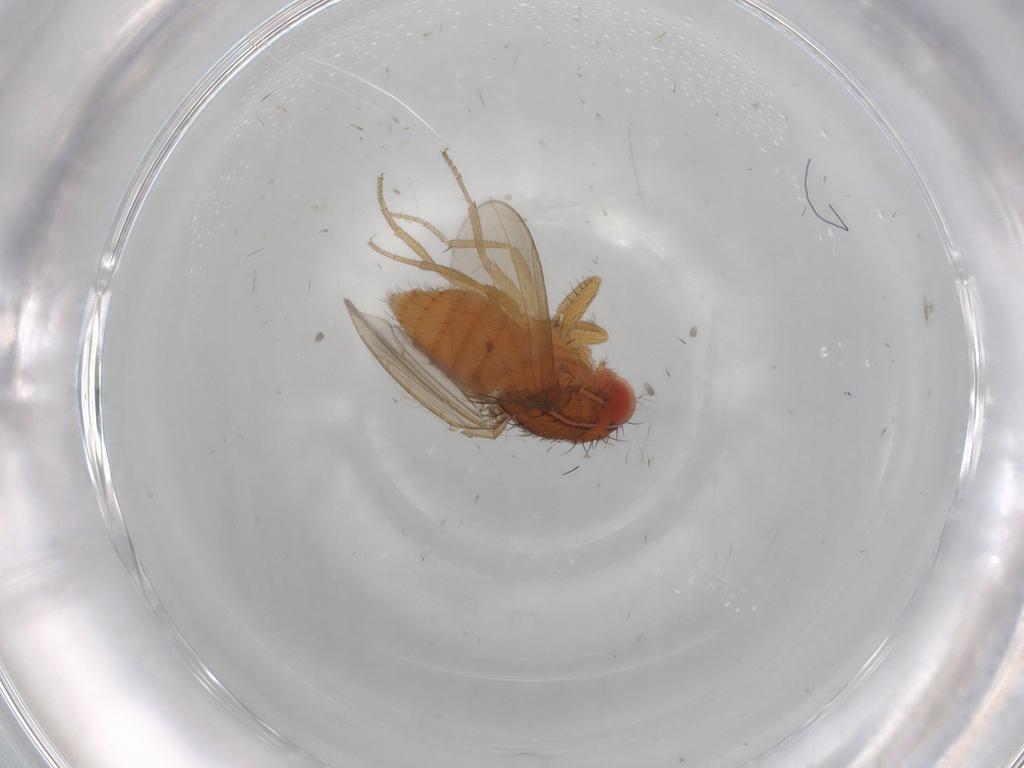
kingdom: Animalia
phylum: Arthropoda
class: Insecta
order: Diptera
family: Drosophilidae
